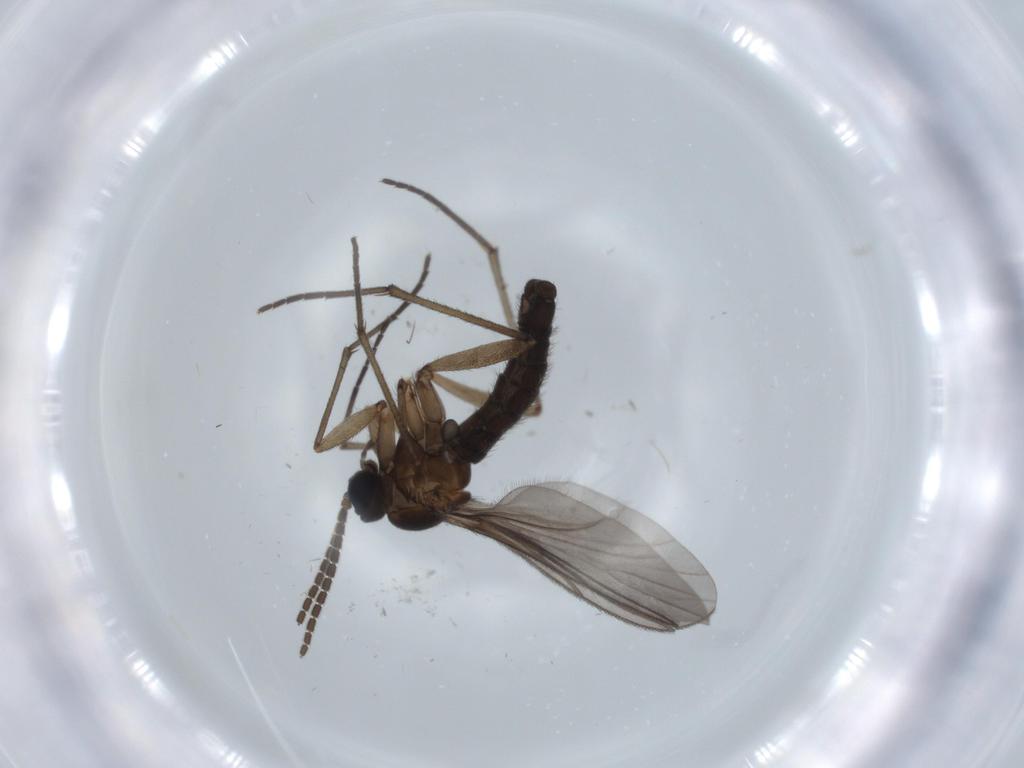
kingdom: Animalia
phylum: Arthropoda
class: Insecta
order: Diptera
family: Sciaridae
